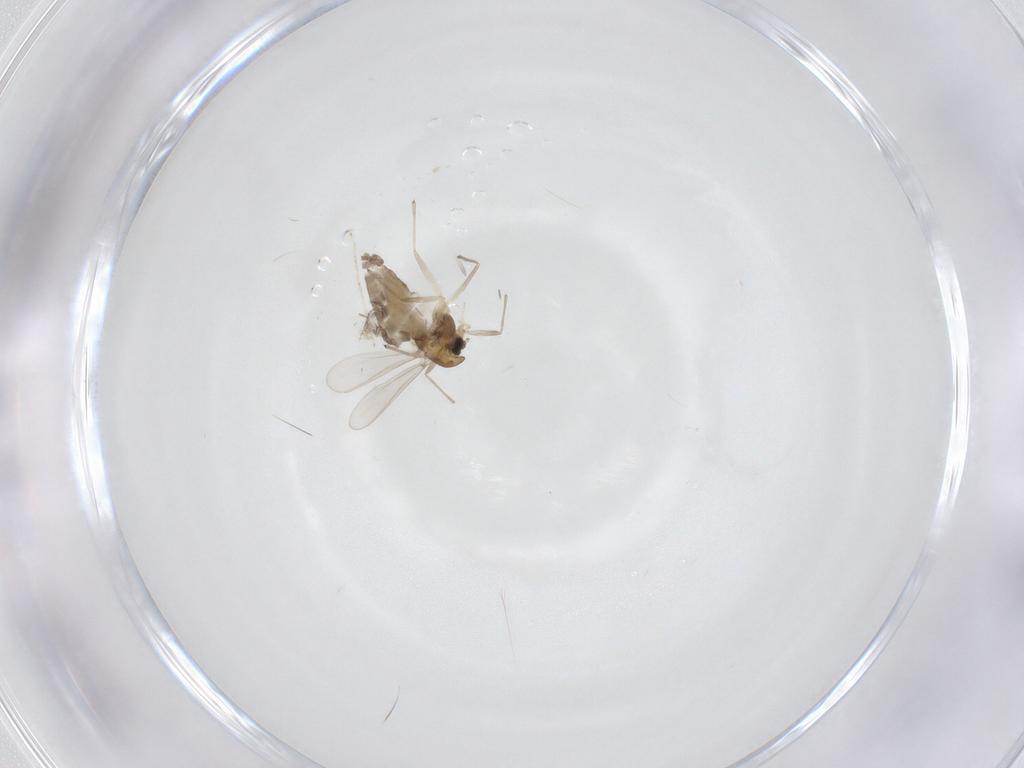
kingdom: Animalia
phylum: Arthropoda
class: Insecta
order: Diptera
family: Chironomidae
